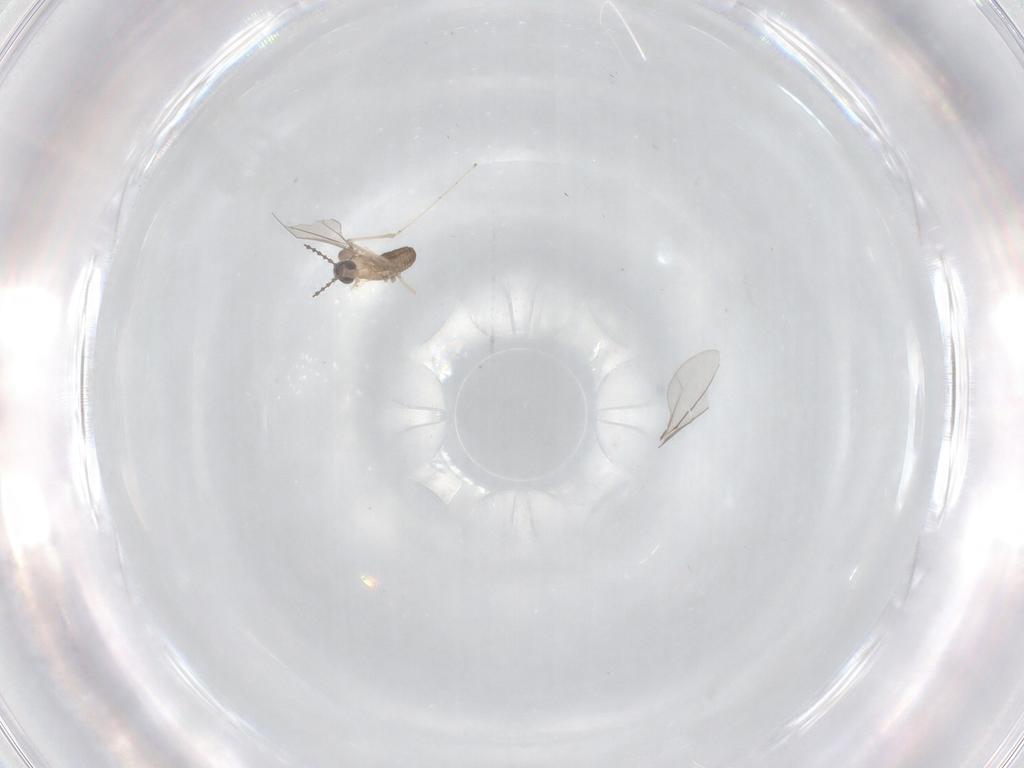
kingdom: Animalia
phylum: Arthropoda
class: Insecta
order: Diptera
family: Cecidomyiidae
